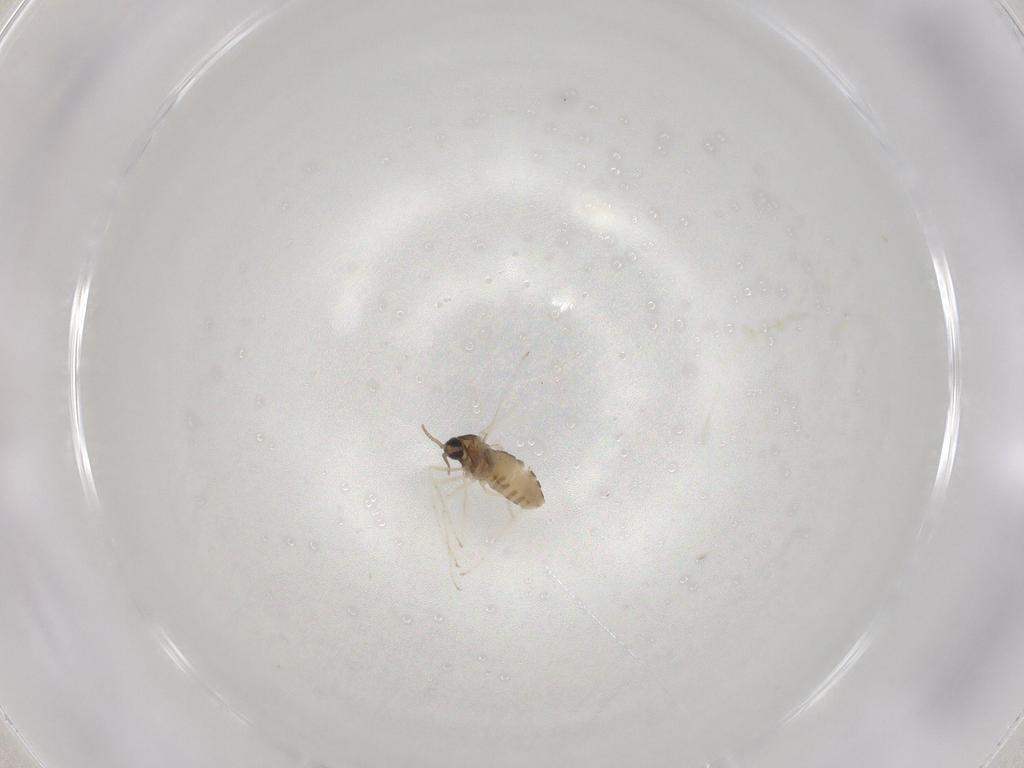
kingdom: Animalia
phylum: Arthropoda
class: Insecta
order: Diptera
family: Cecidomyiidae
